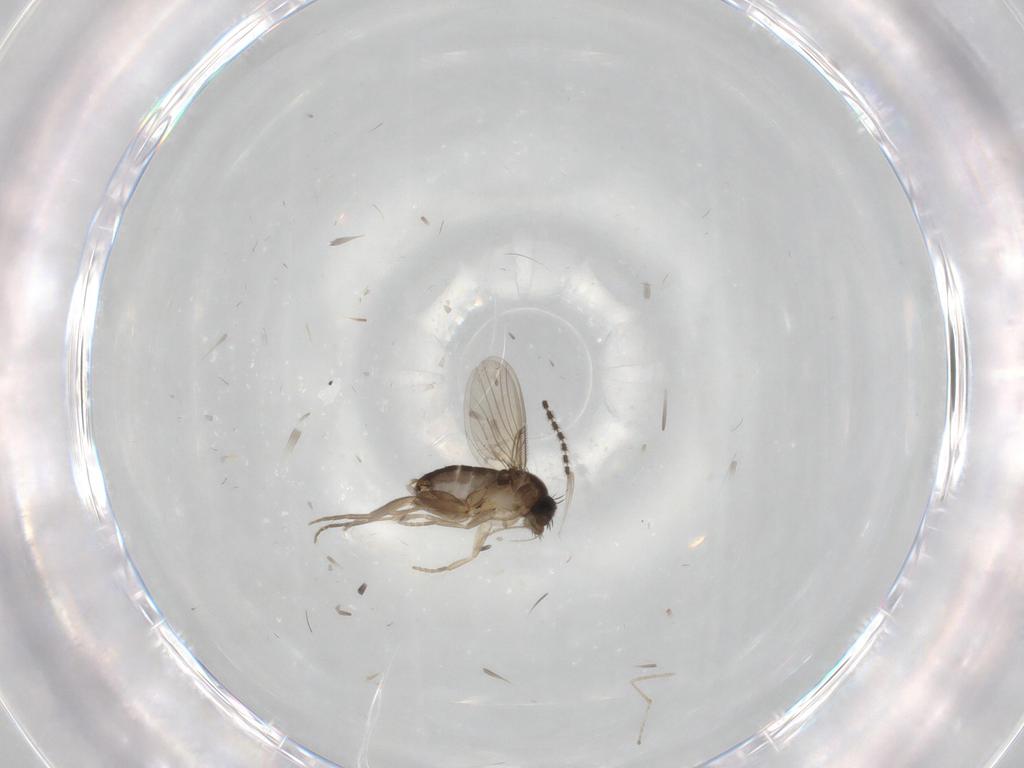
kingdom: Animalia
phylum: Arthropoda
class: Insecta
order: Diptera
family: Phoridae
